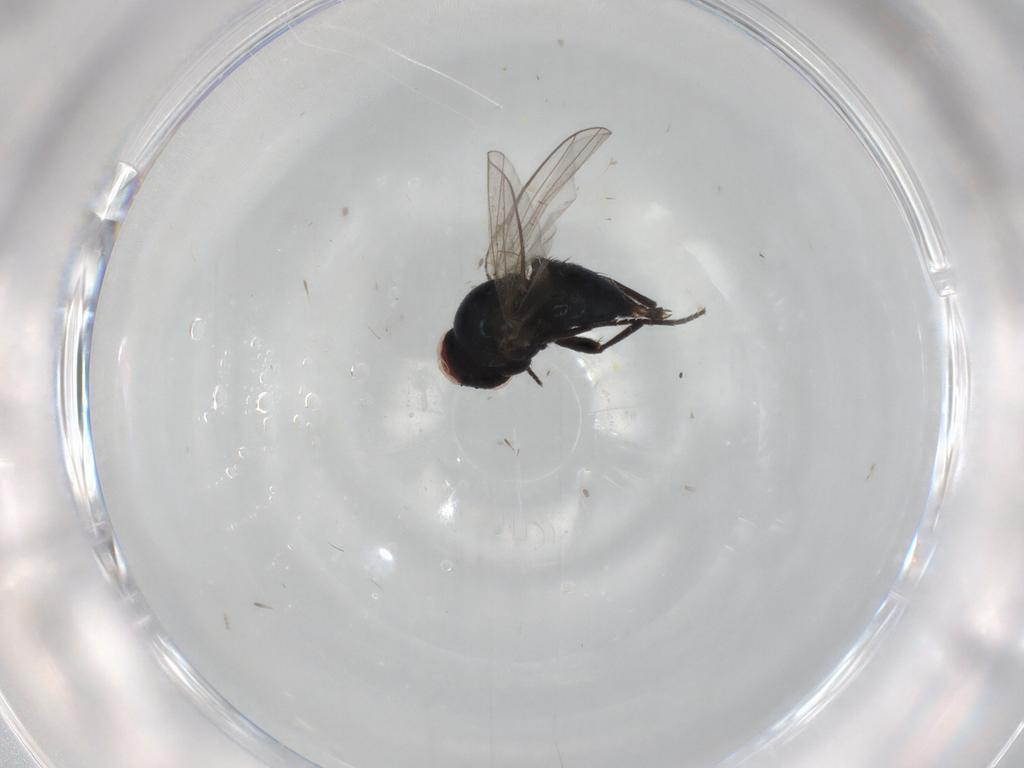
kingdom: Animalia
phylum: Arthropoda
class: Insecta
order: Diptera
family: Agromyzidae
